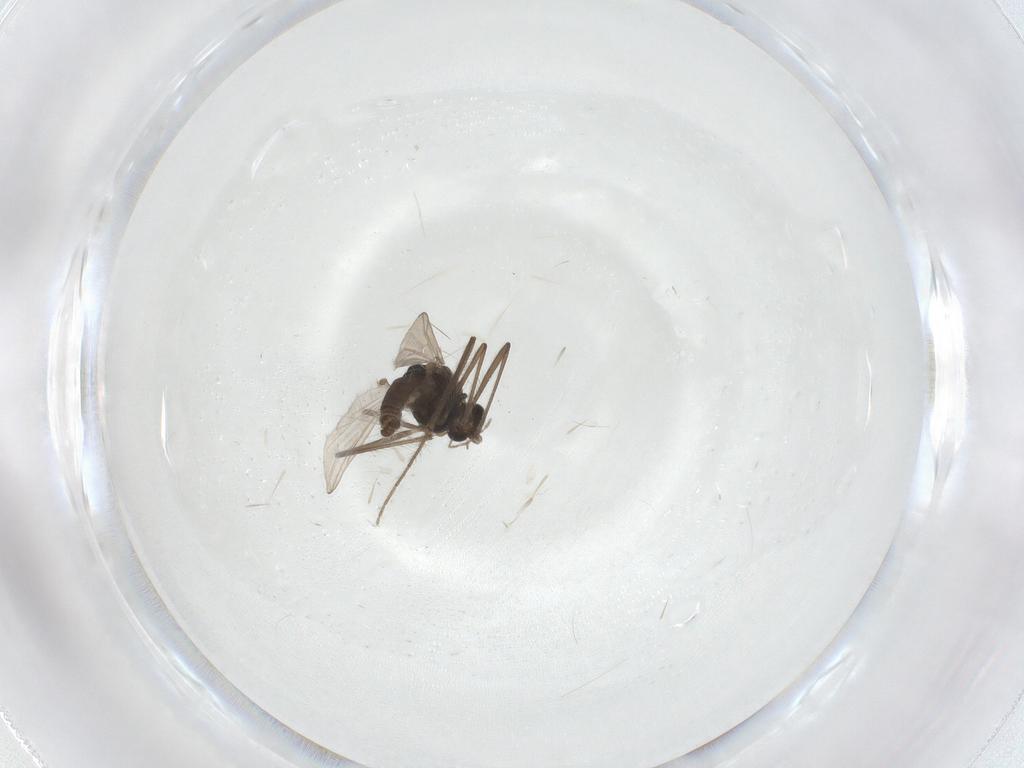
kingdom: Animalia
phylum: Arthropoda
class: Insecta
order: Diptera
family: Chironomidae
